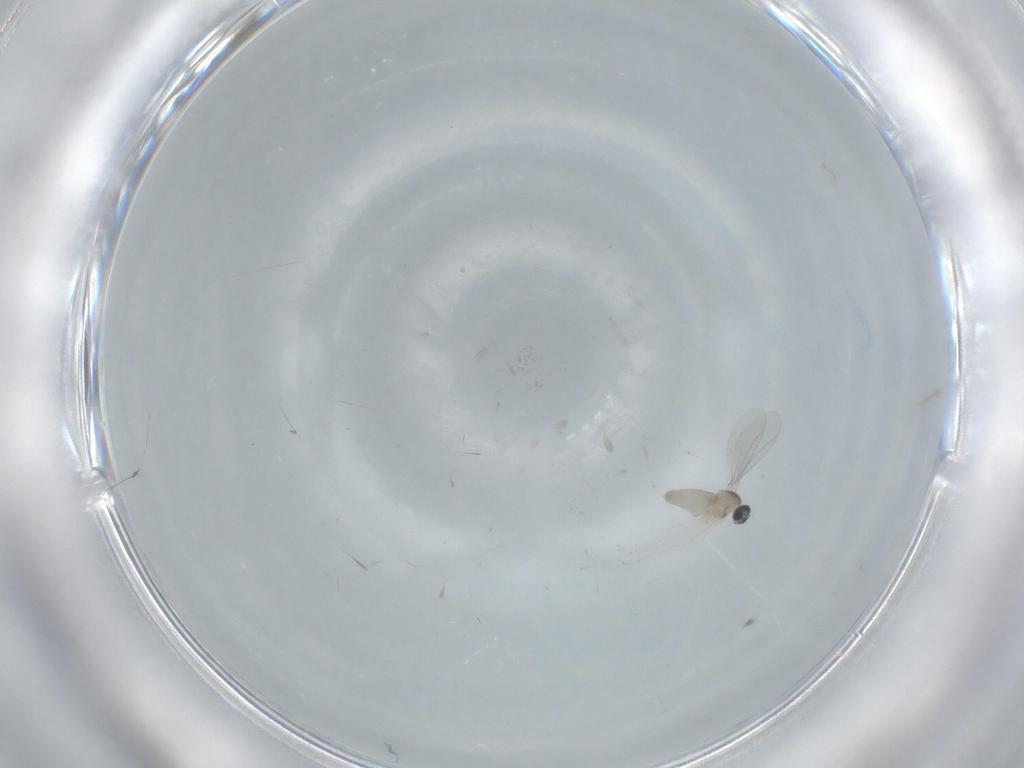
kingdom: Animalia
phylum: Arthropoda
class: Insecta
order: Diptera
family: Cecidomyiidae
